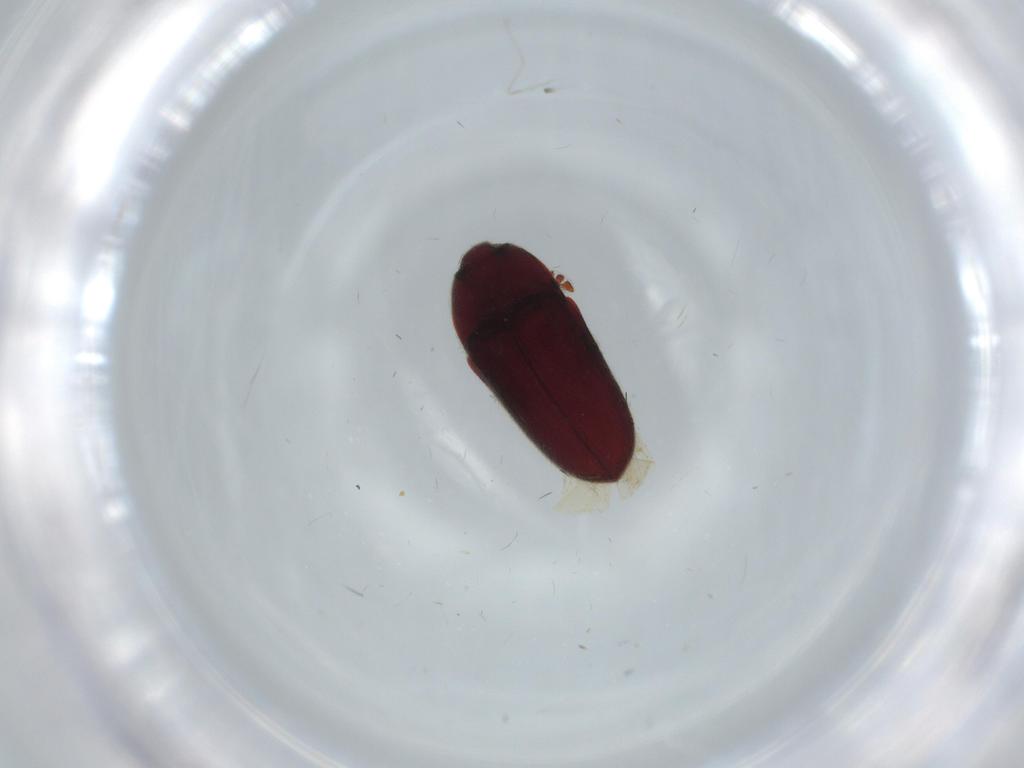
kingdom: Animalia
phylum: Arthropoda
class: Insecta
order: Coleoptera
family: Throscidae
